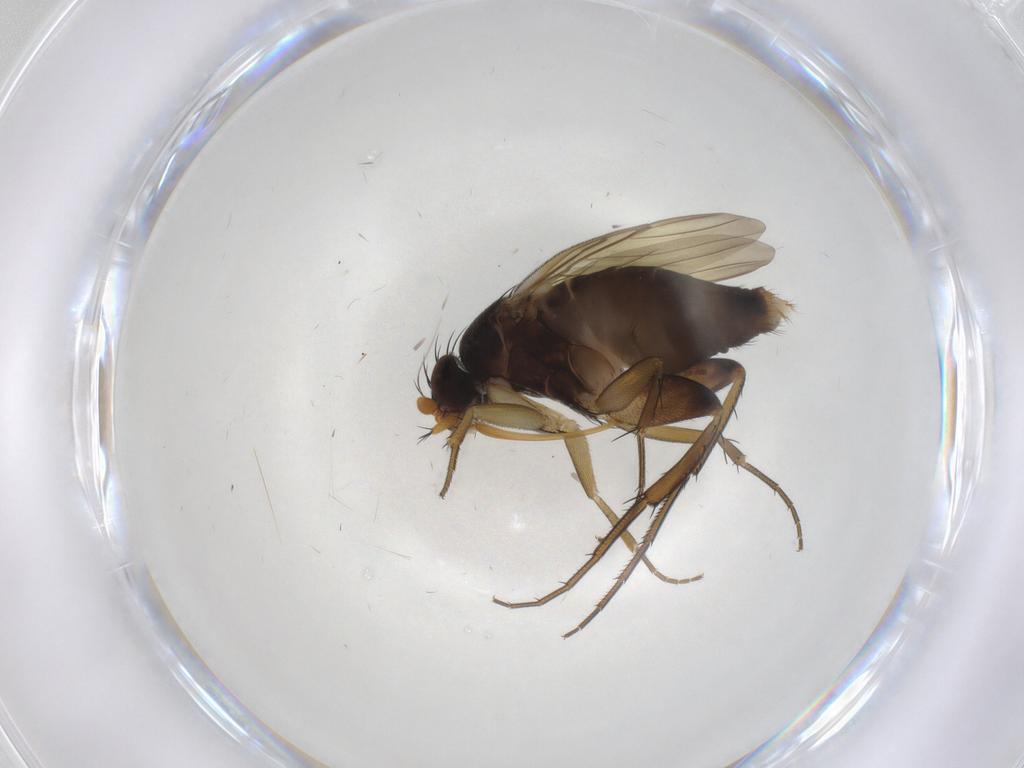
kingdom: Animalia
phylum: Arthropoda
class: Insecta
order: Diptera
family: Phoridae
